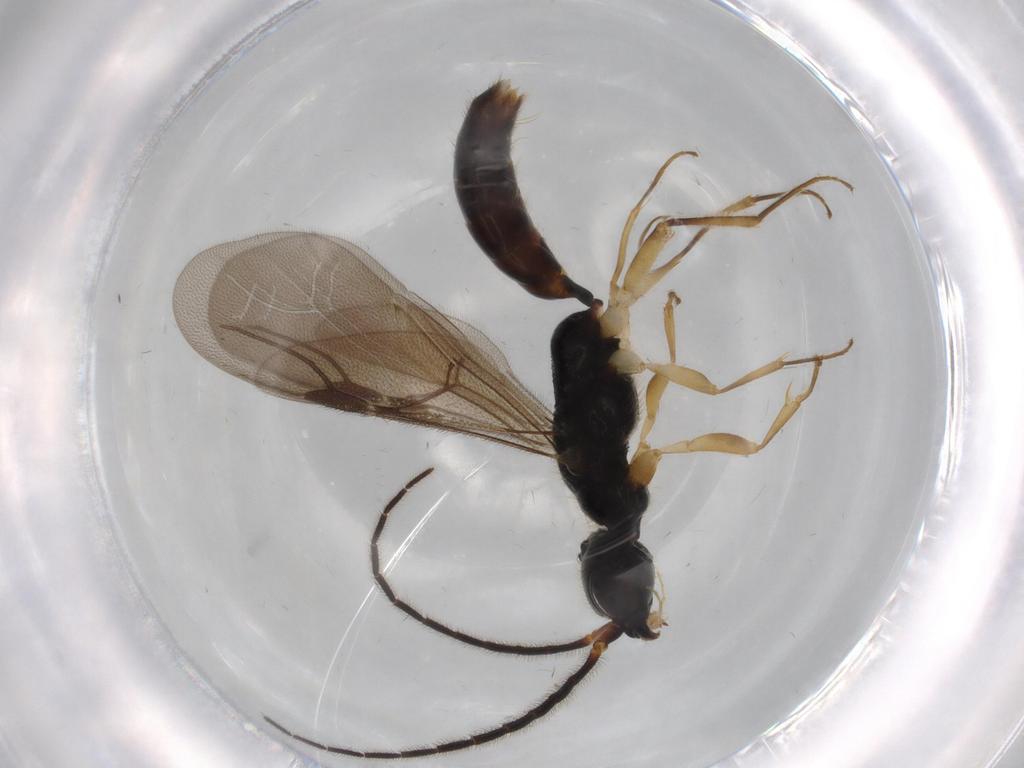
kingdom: Animalia
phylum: Arthropoda
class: Insecta
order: Hymenoptera
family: Bethylidae
